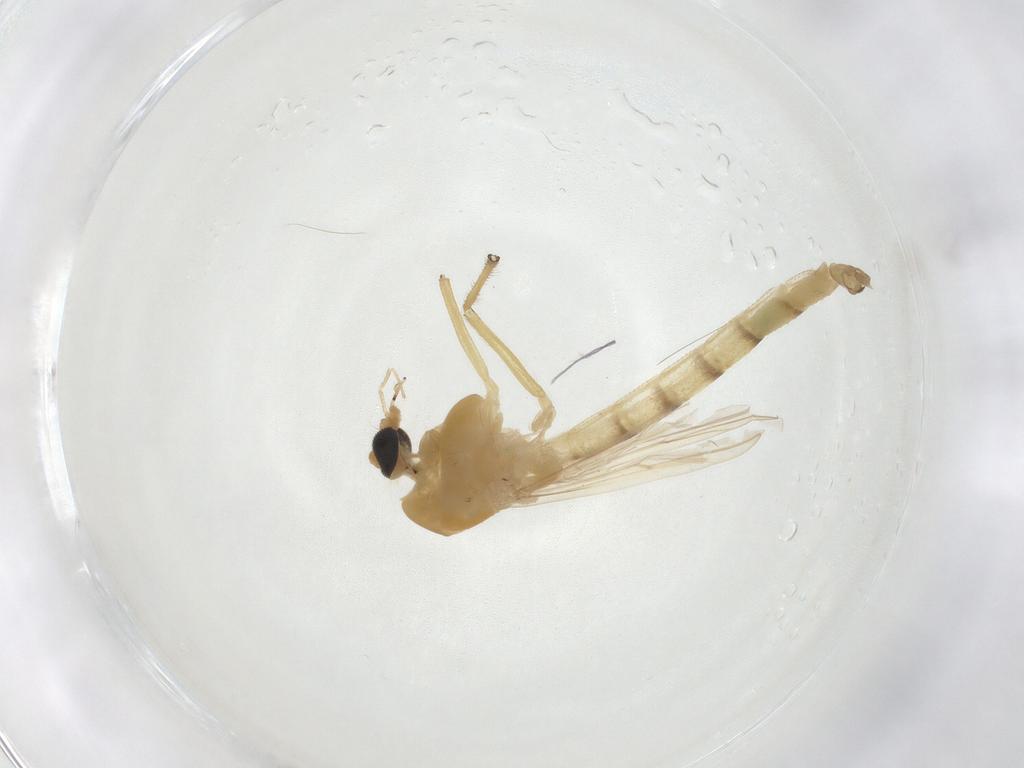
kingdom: Animalia
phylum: Arthropoda
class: Insecta
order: Diptera
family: Chironomidae
